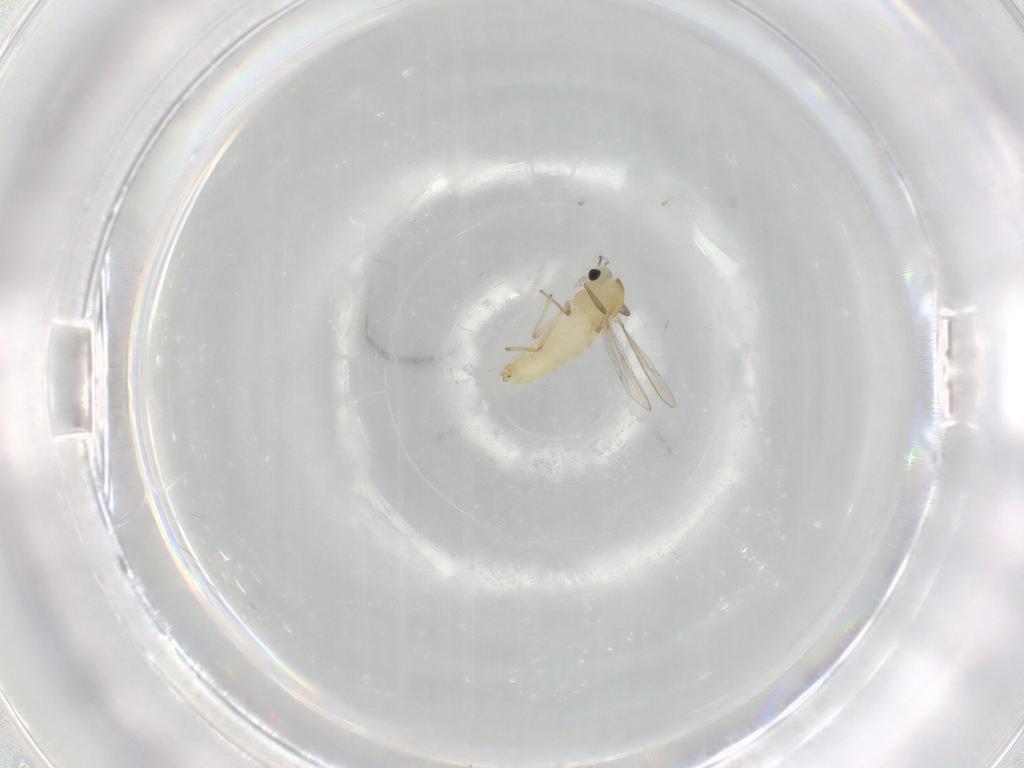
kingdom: Animalia
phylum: Arthropoda
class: Insecta
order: Diptera
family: Chironomidae
